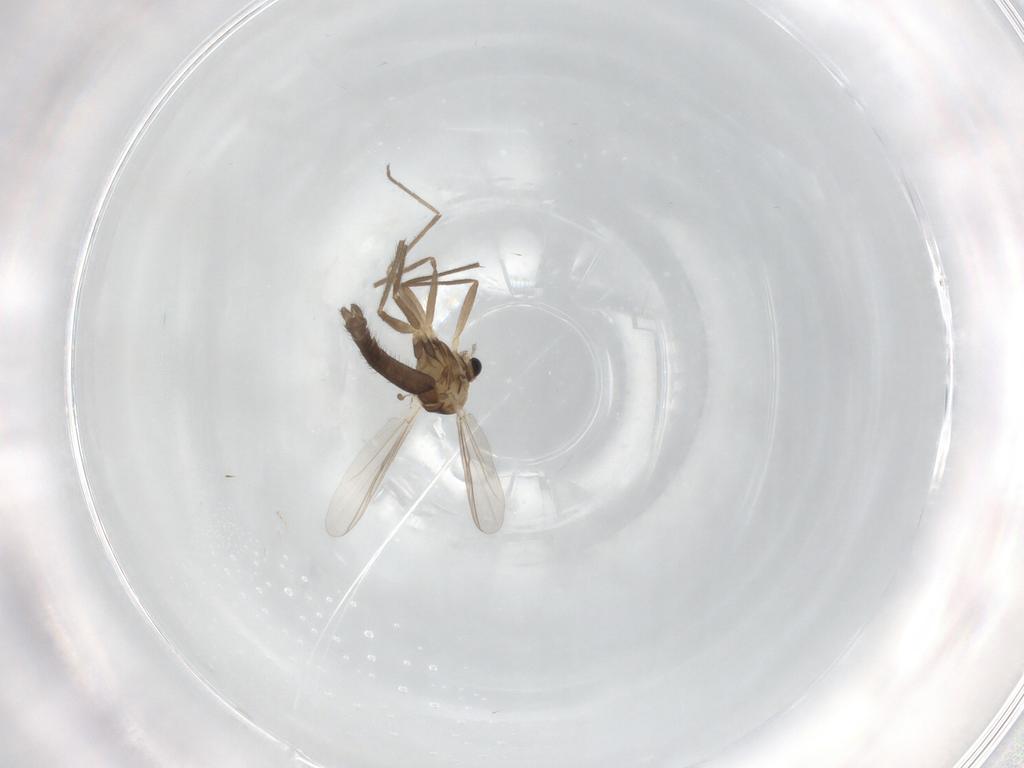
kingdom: Animalia
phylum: Arthropoda
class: Insecta
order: Diptera
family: Chironomidae
